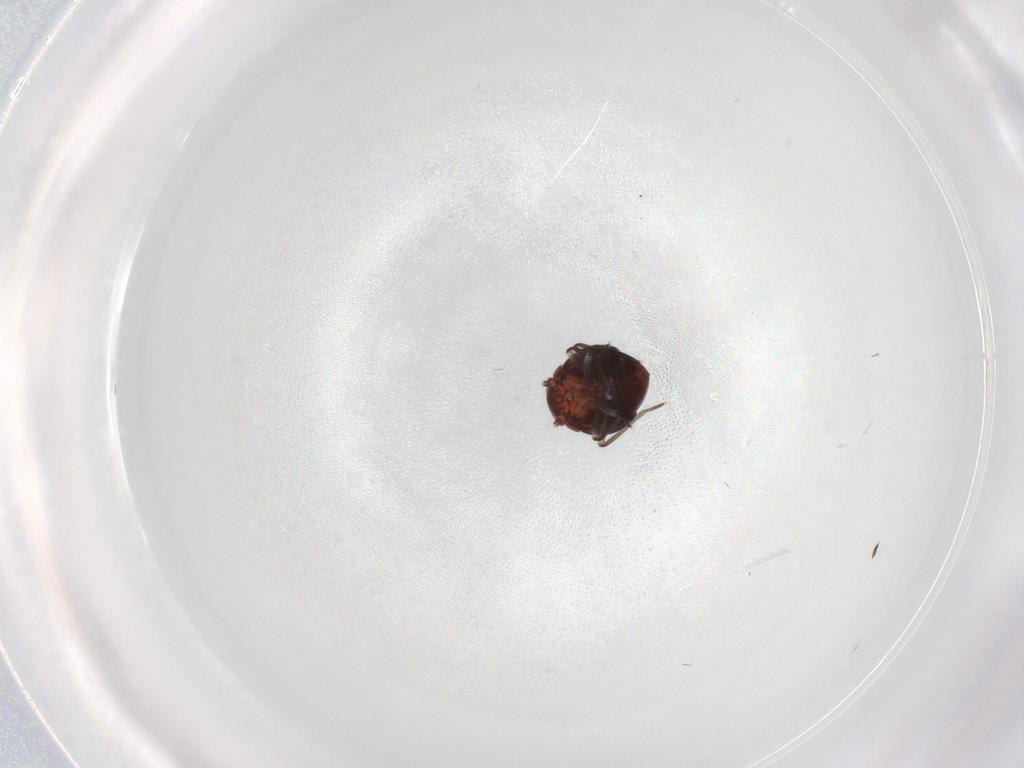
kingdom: Animalia
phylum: Arthropoda
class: Insecta
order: Hemiptera
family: Schizopteridae
